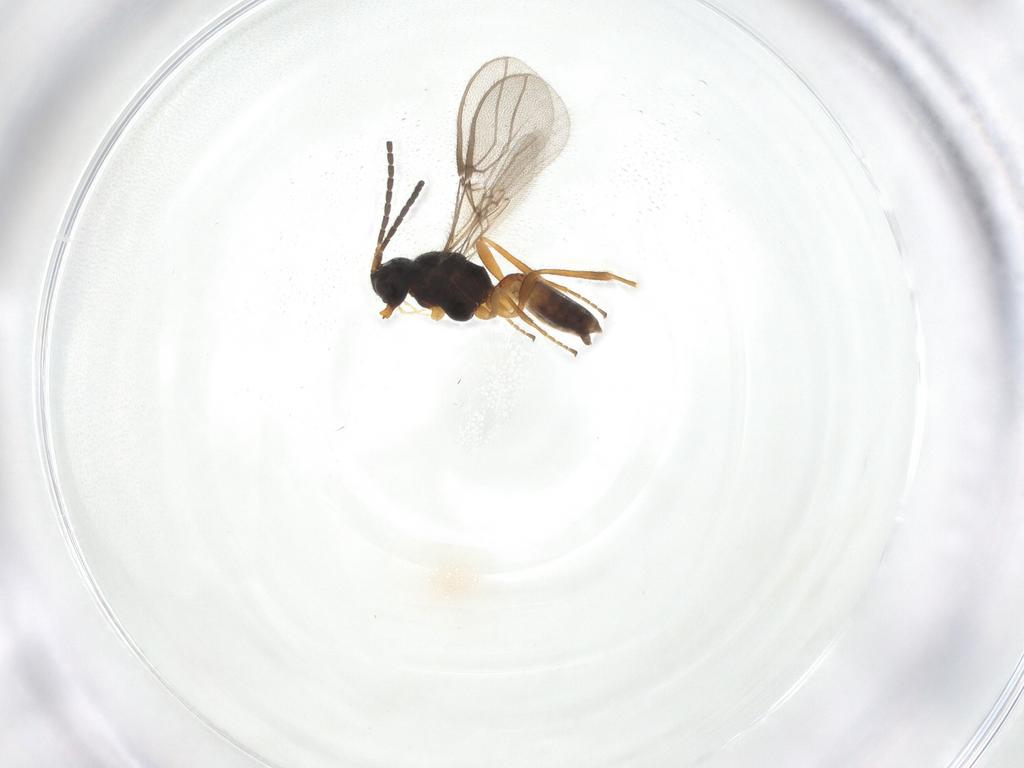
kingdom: Animalia
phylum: Arthropoda
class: Insecta
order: Hymenoptera
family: Braconidae
